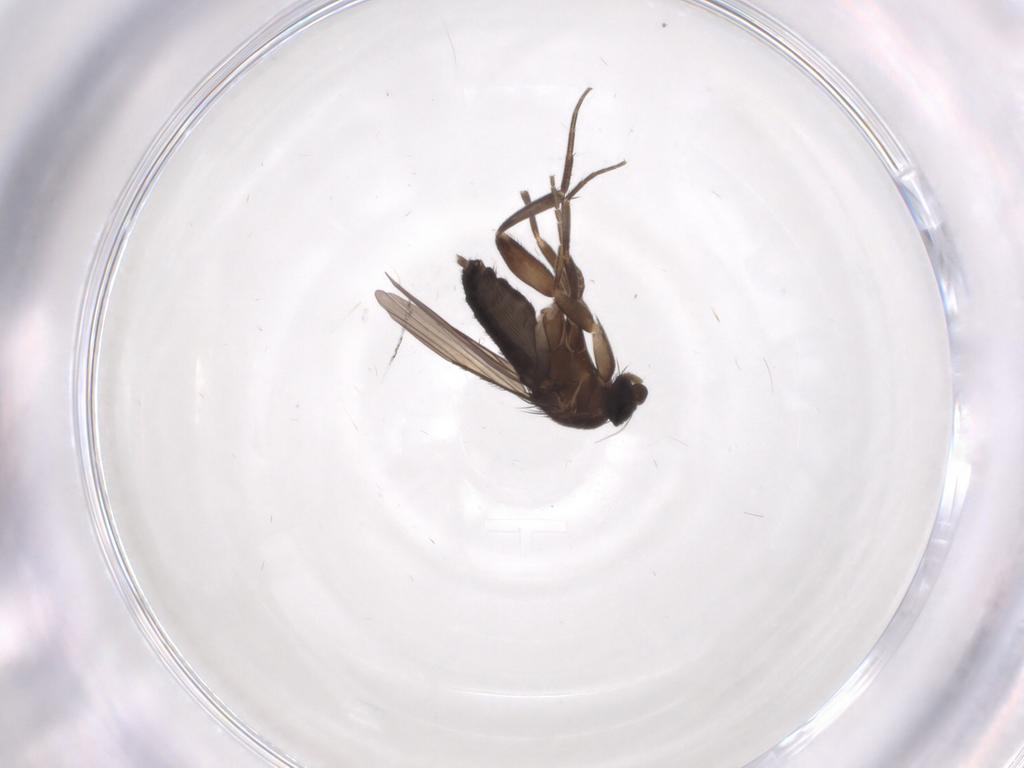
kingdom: Animalia
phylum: Arthropoda
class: Insecta
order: Diptera
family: Phoridae
